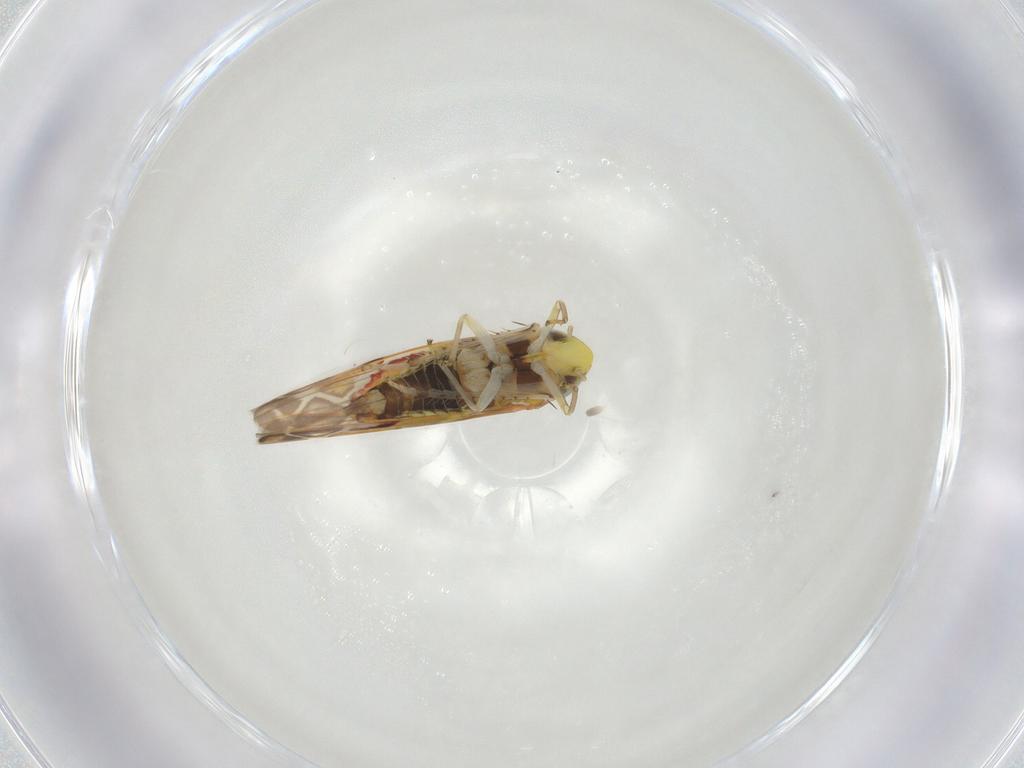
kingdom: Animalia
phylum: Arthropoda
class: Insecta
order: Hemiptera
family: Cicadellidae
